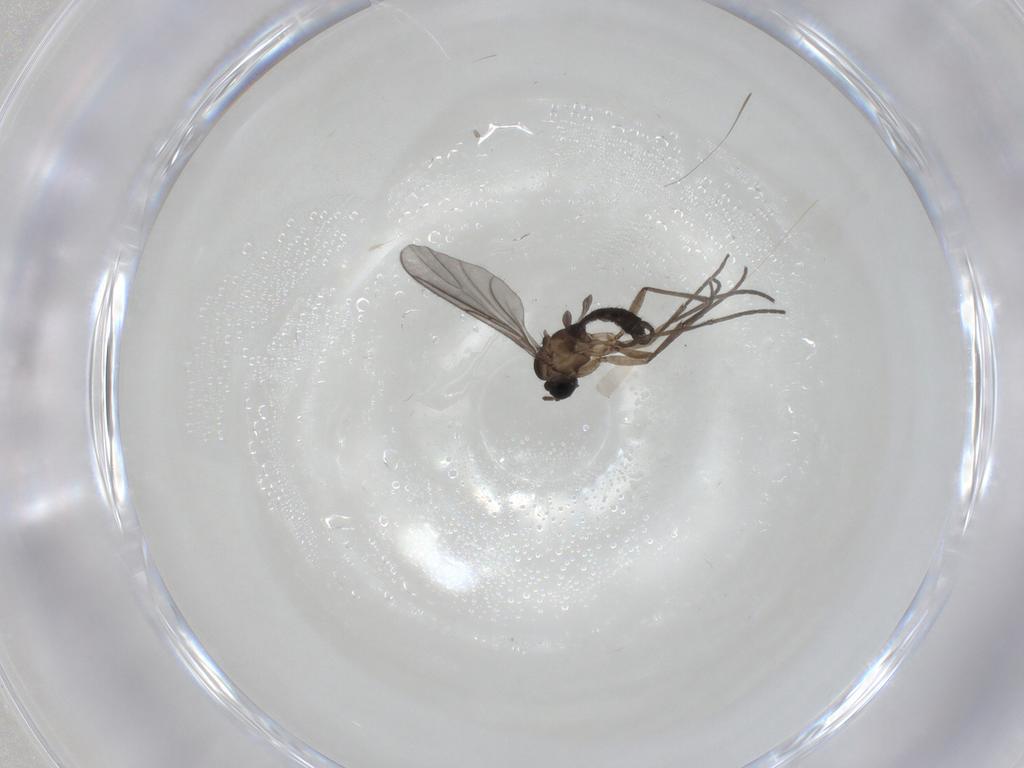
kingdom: Animalia
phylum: Arthropoda
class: Insecta
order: Diptera
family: Sciaridae
